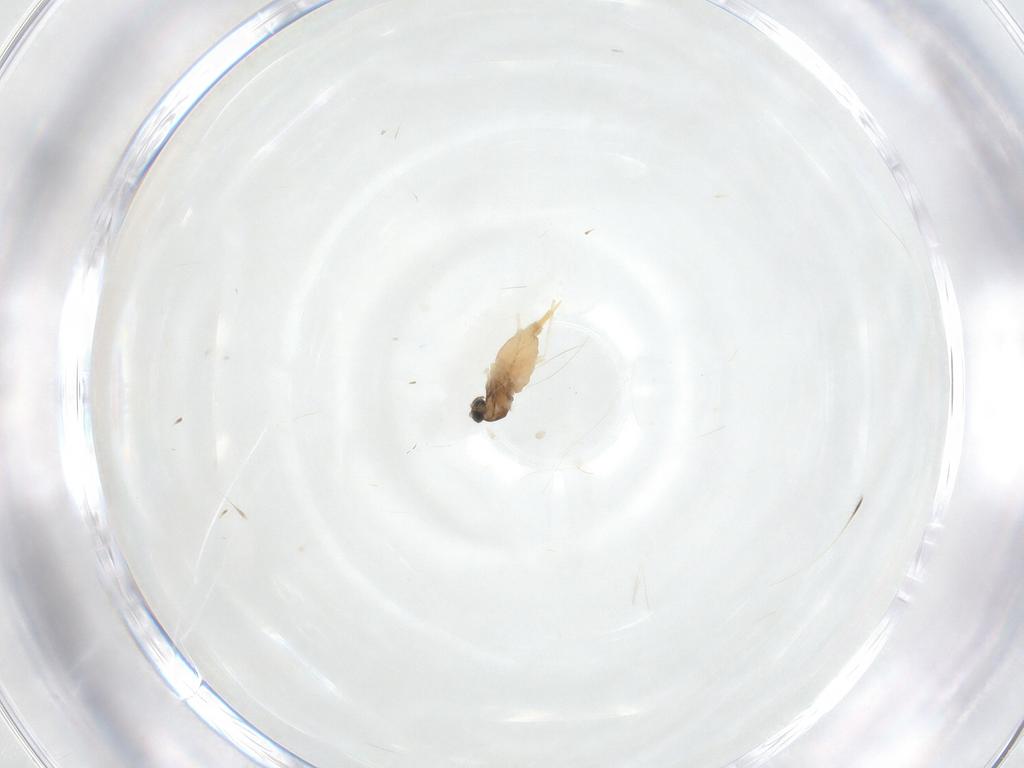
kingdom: Animalia
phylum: Arthropoda
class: Insecta
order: Diptera
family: Cecidomyiidae
